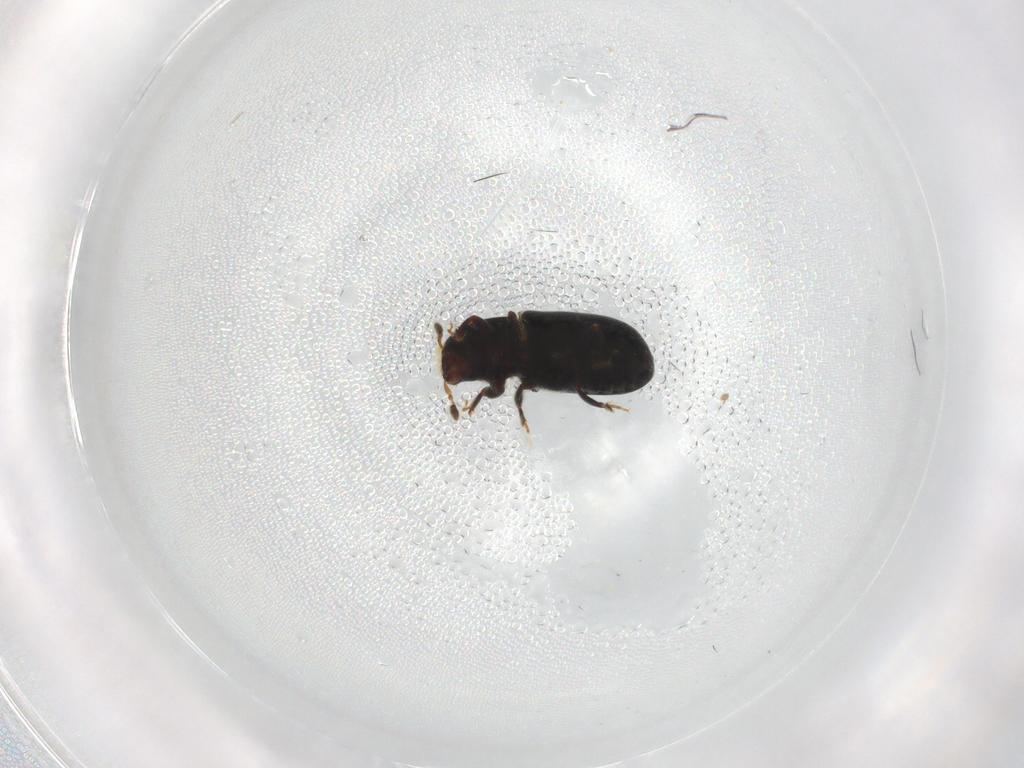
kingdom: Animalia
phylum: Arthropoda
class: Insecta
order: Coleoptera
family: Curculionidae
